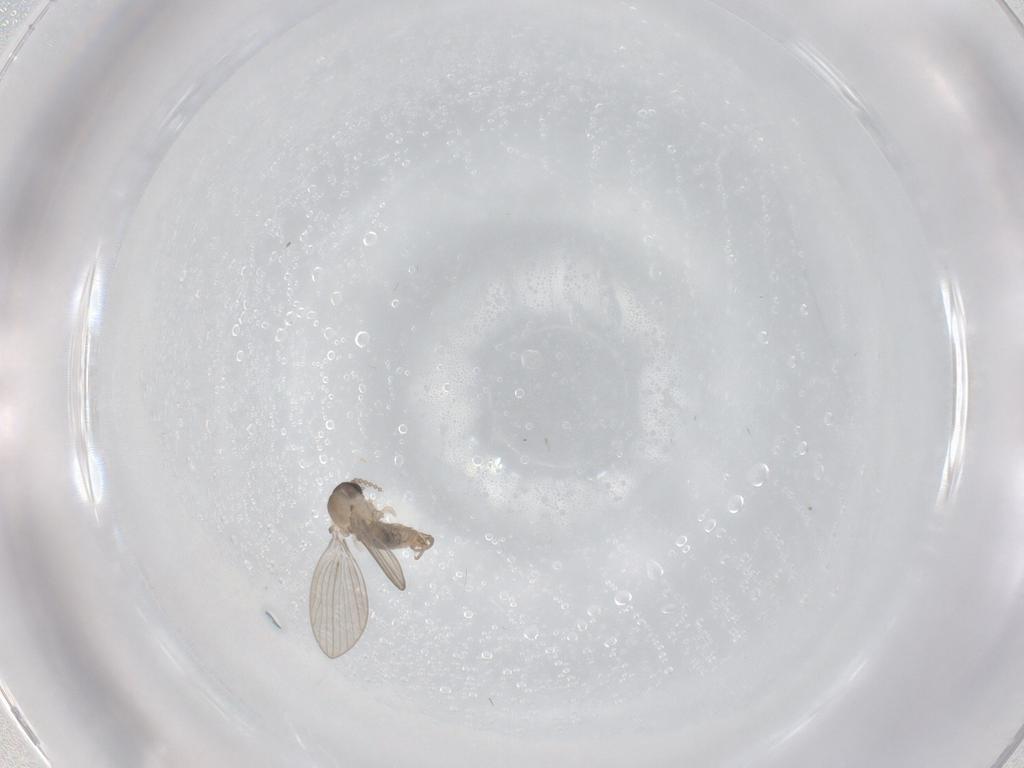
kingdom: Animalia
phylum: Arthropoda
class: Insecta
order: Diptera
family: Psychodidae
